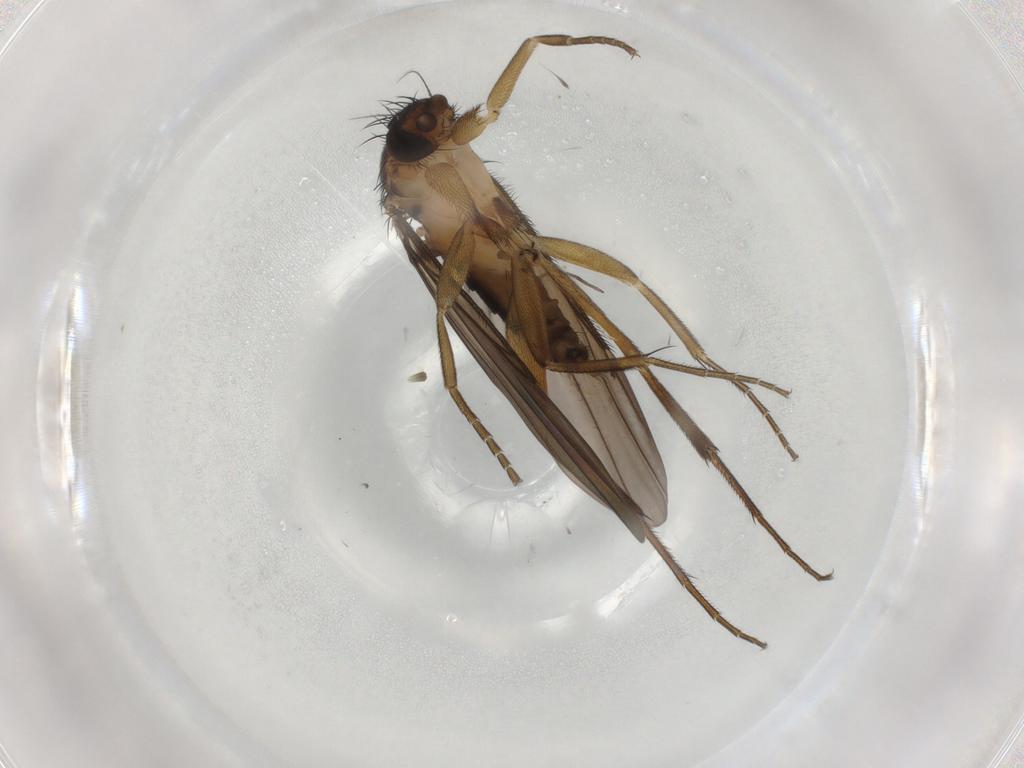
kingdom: Animalia
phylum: Arthropoda
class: Insecta
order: Diptera
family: Phoridae
